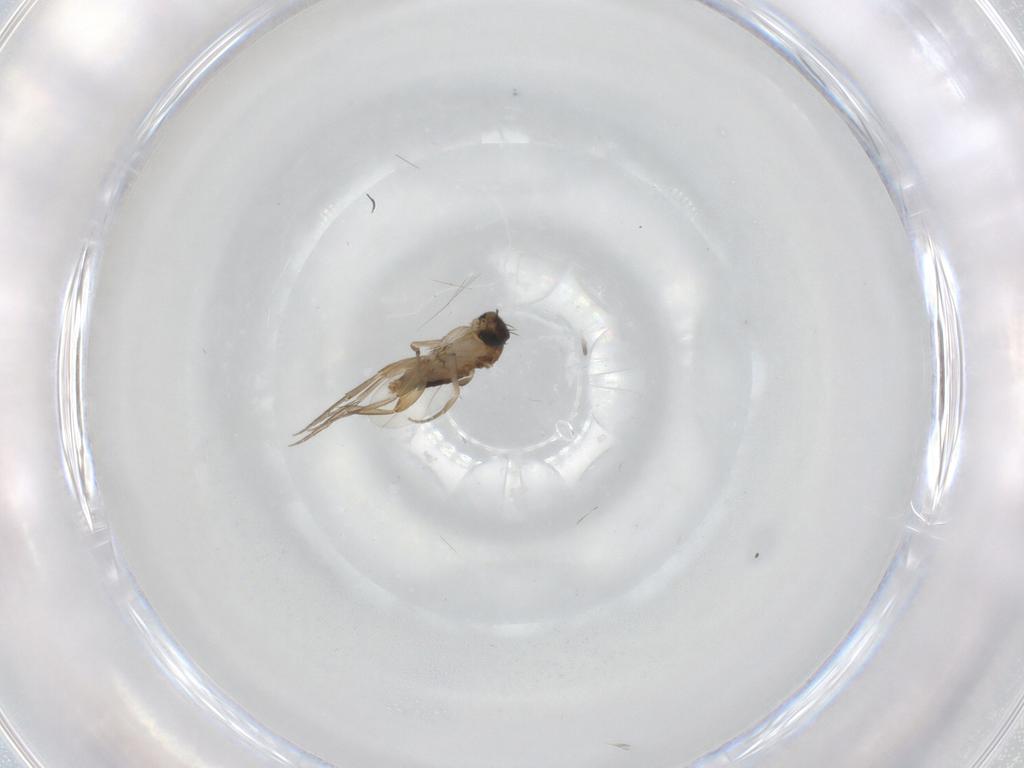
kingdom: Animalia
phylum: Arthropoda
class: Insecta
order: Diptera
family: Phoridae
